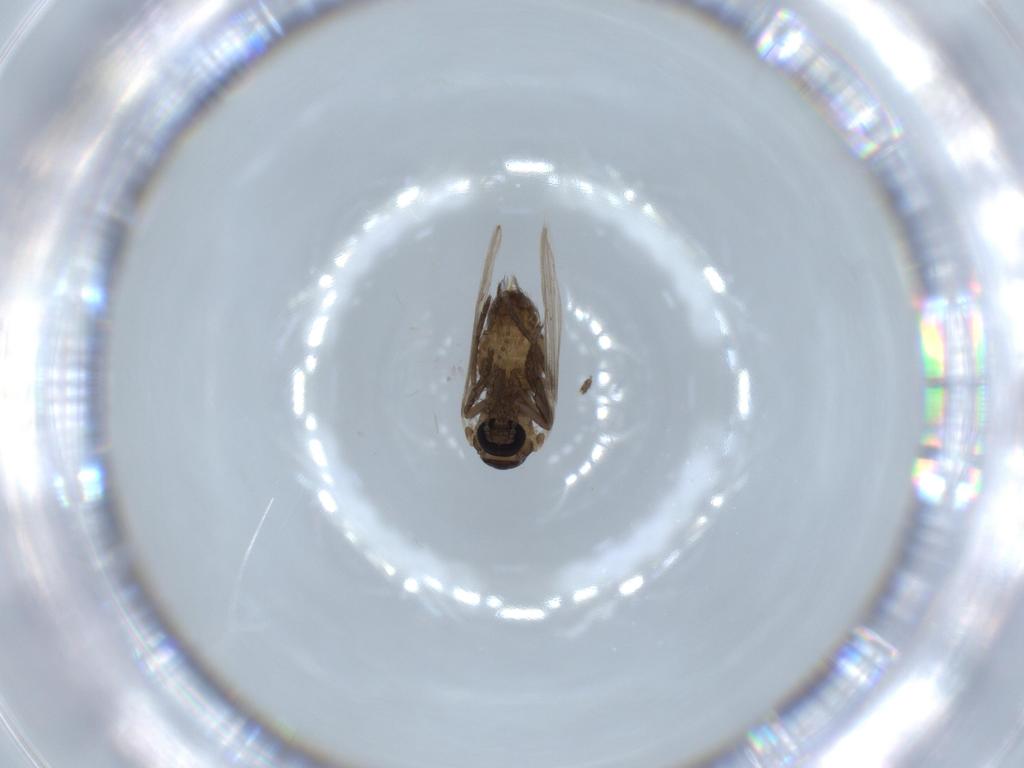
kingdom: Animalia
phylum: Arthropoda
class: Insecta
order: Diptera
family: Psychodidae
